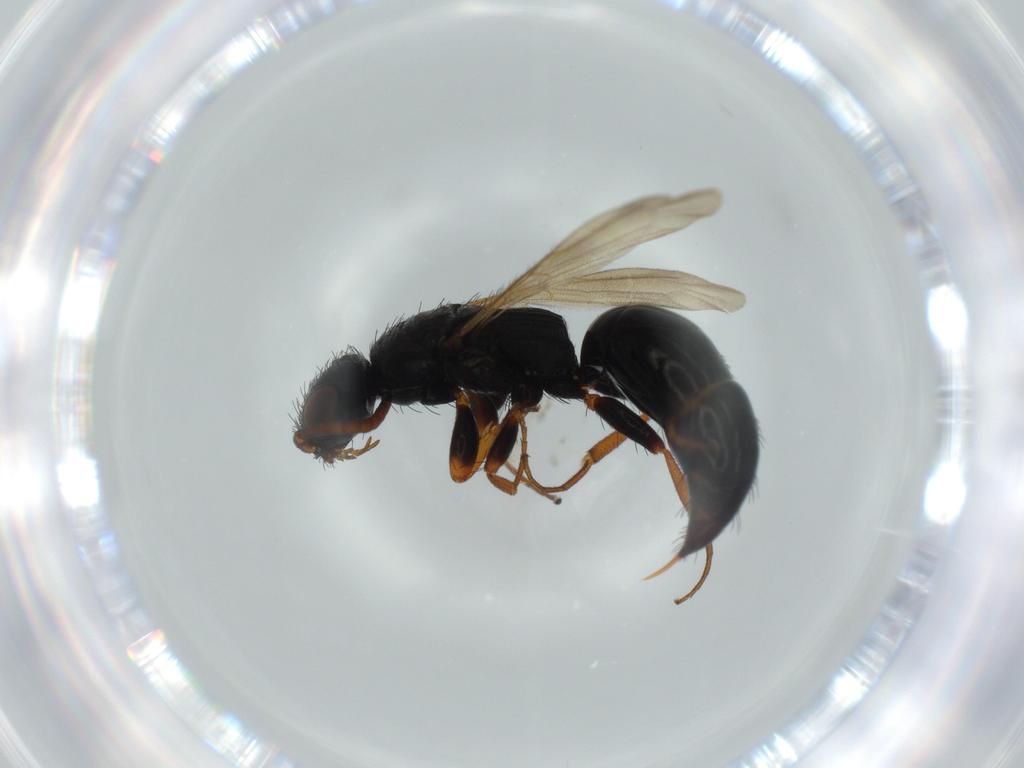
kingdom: Animalia
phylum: Arthropoda
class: Insecta
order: Hymenoptera
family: Bethylidae
